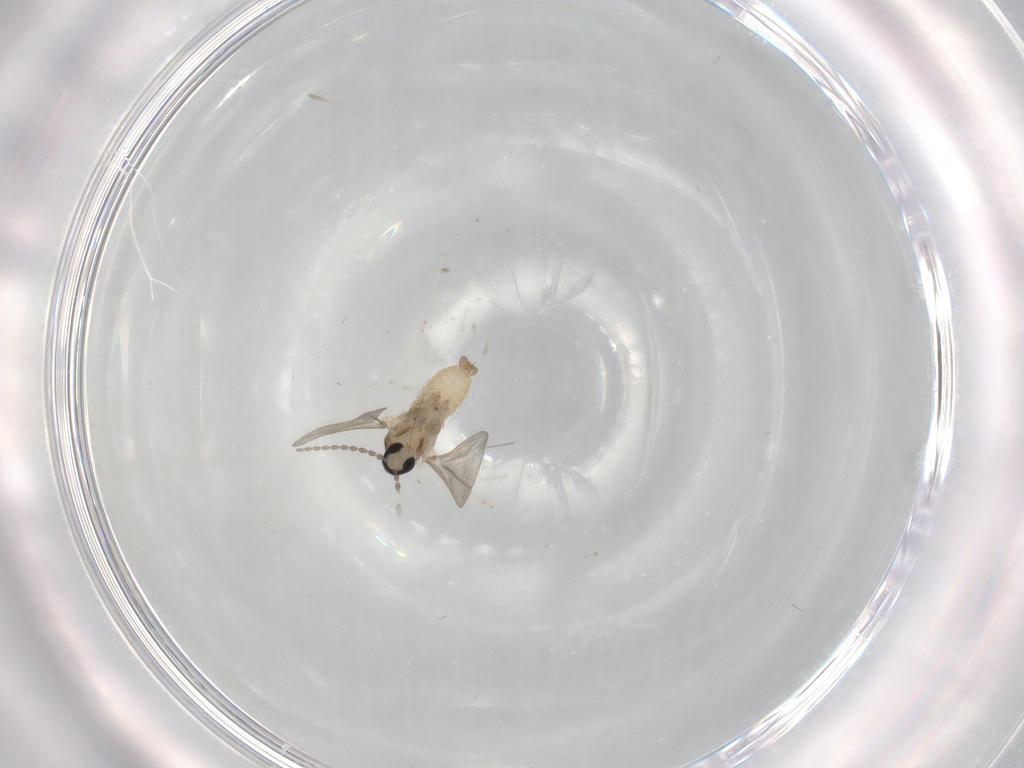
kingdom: Animalia
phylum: Arthropoda
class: Insecta
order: Diptera
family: Cecidomyiidae
